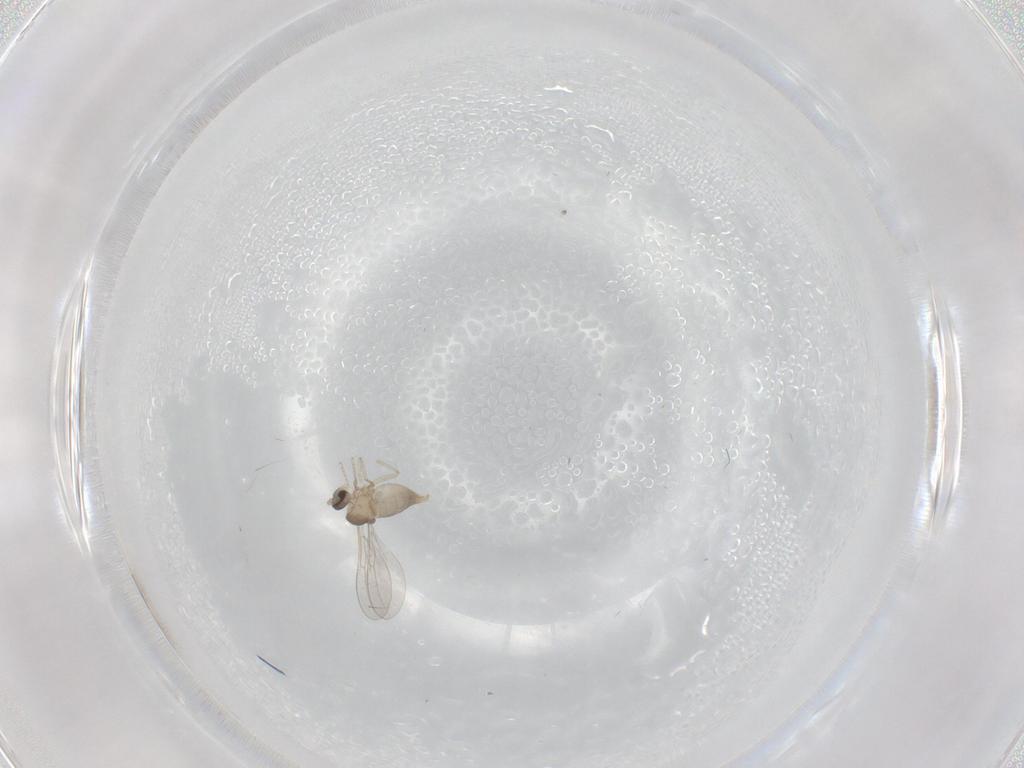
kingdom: Animalia
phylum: Arthropoda
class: Insecta
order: Diptera
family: Cecidomyiidae
